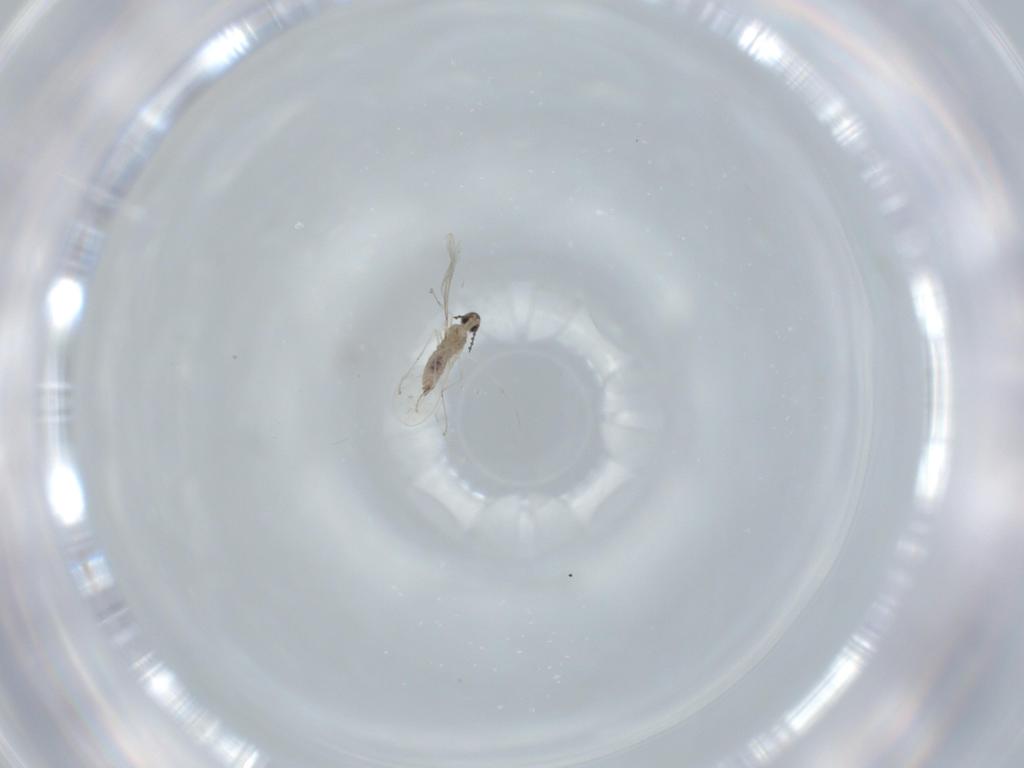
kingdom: Animalia
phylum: Arthropoda
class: Insecta
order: Diptera
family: Cecidomyiidae
